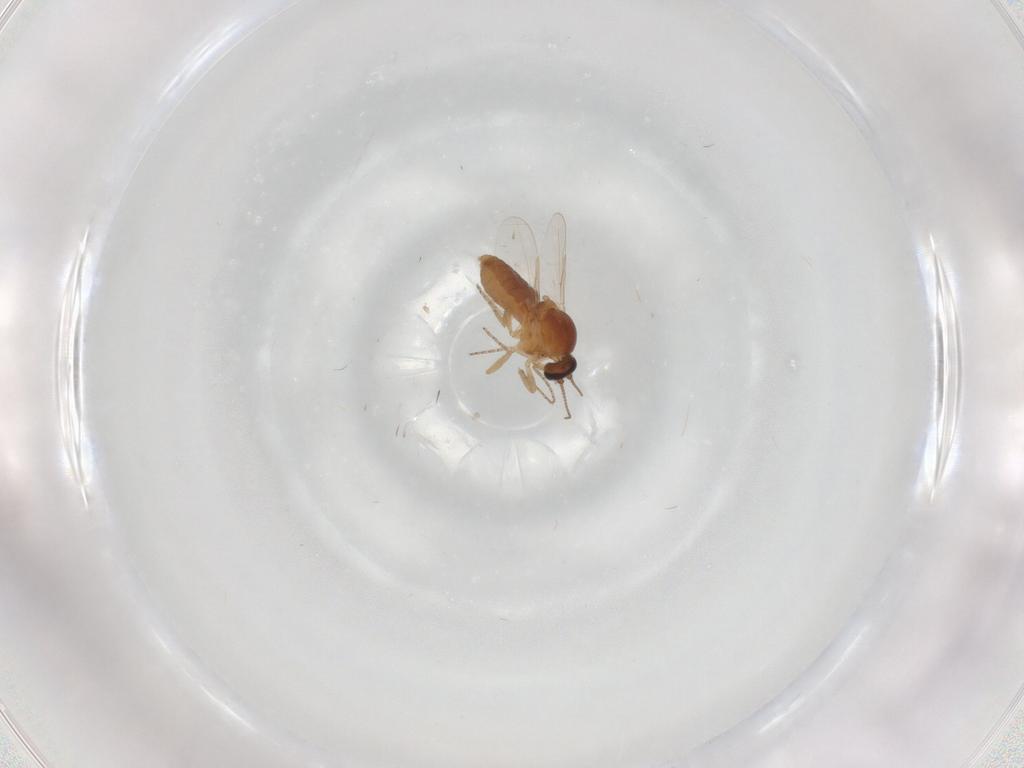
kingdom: Animalia
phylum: Arthropoda
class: Insecta
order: Diptera
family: Ceratopogonidae
